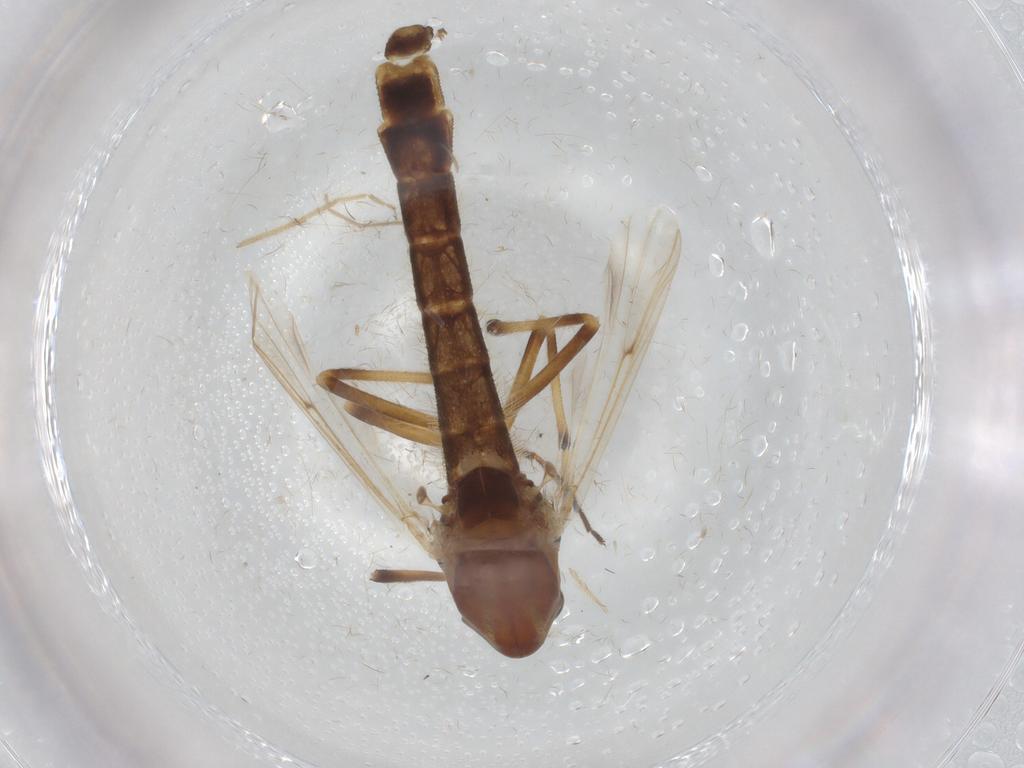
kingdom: Animalia
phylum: Arthropoda
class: Insecta
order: Diptera
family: Chironomidae
